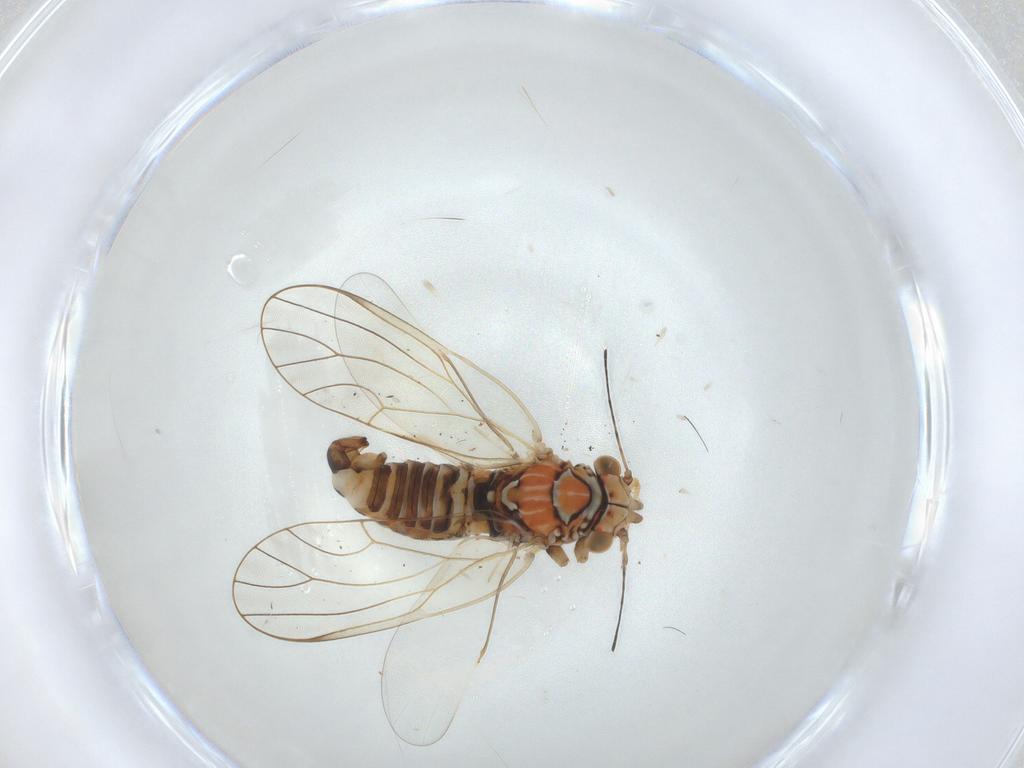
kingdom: Animalia
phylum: Arthropoda
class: Insecta
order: Hemiptera
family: Psyllidae
